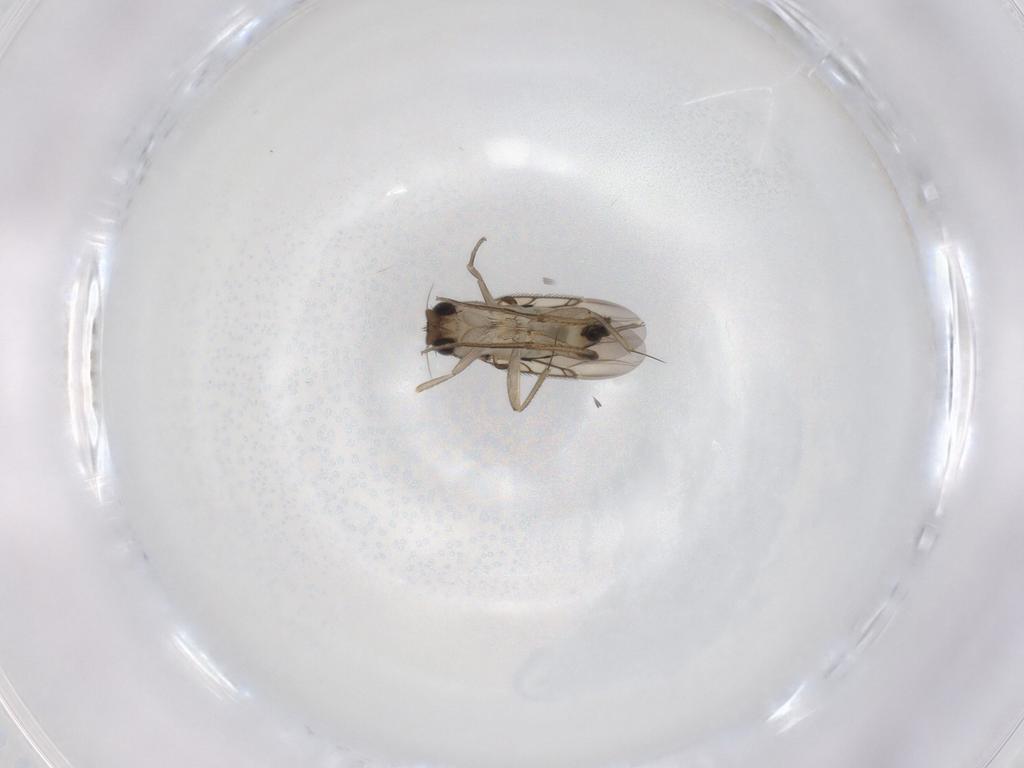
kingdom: Animalia
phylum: Arthropoda
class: Insecta
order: Diptera
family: Phoridae
